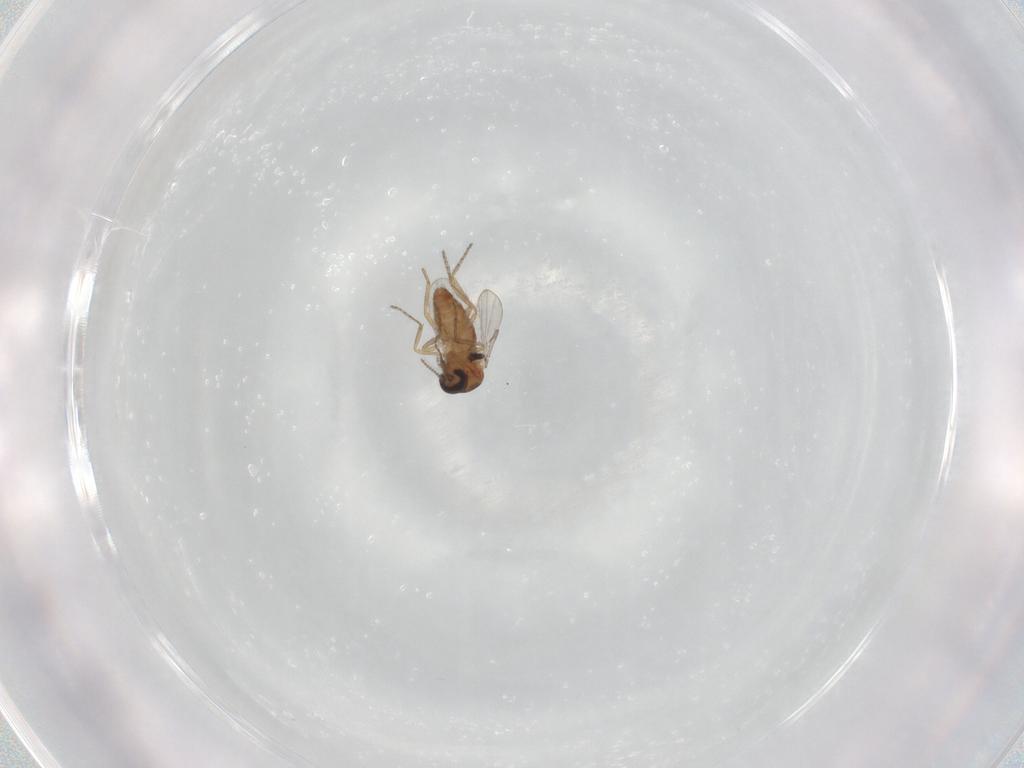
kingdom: Animalia
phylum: Arthropoda
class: Insecta
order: Diptera
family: Ceratopogonidae
